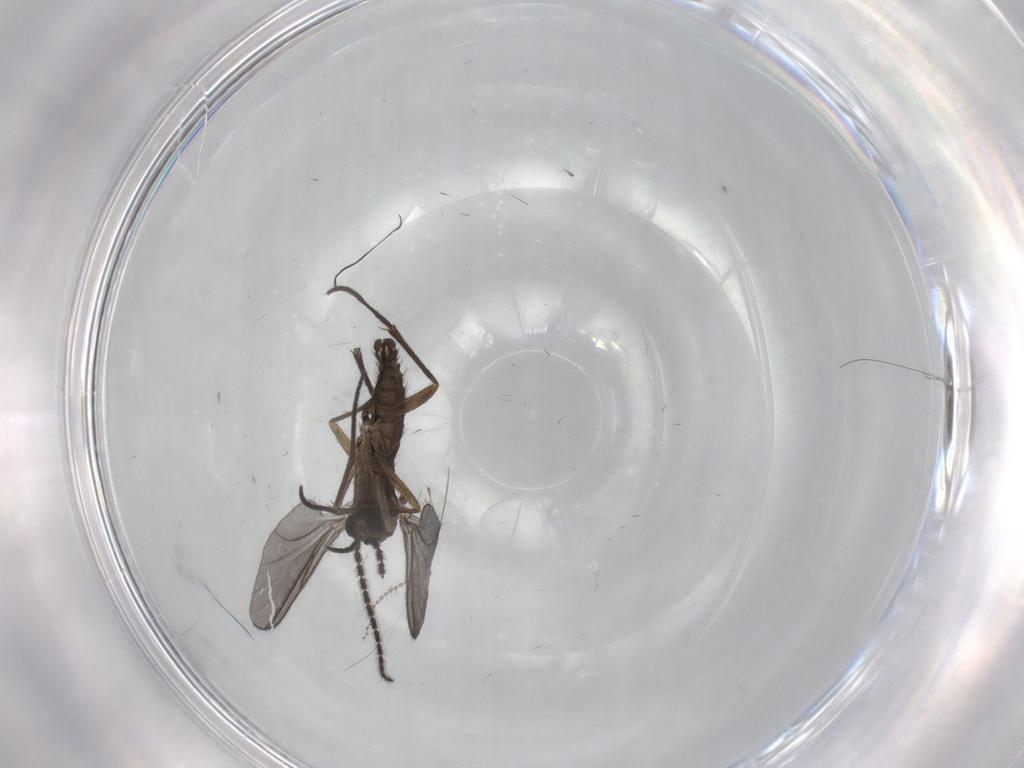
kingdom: Animalia
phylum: Arthropoda
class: Insecta
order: Diptera
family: Sciaridae
